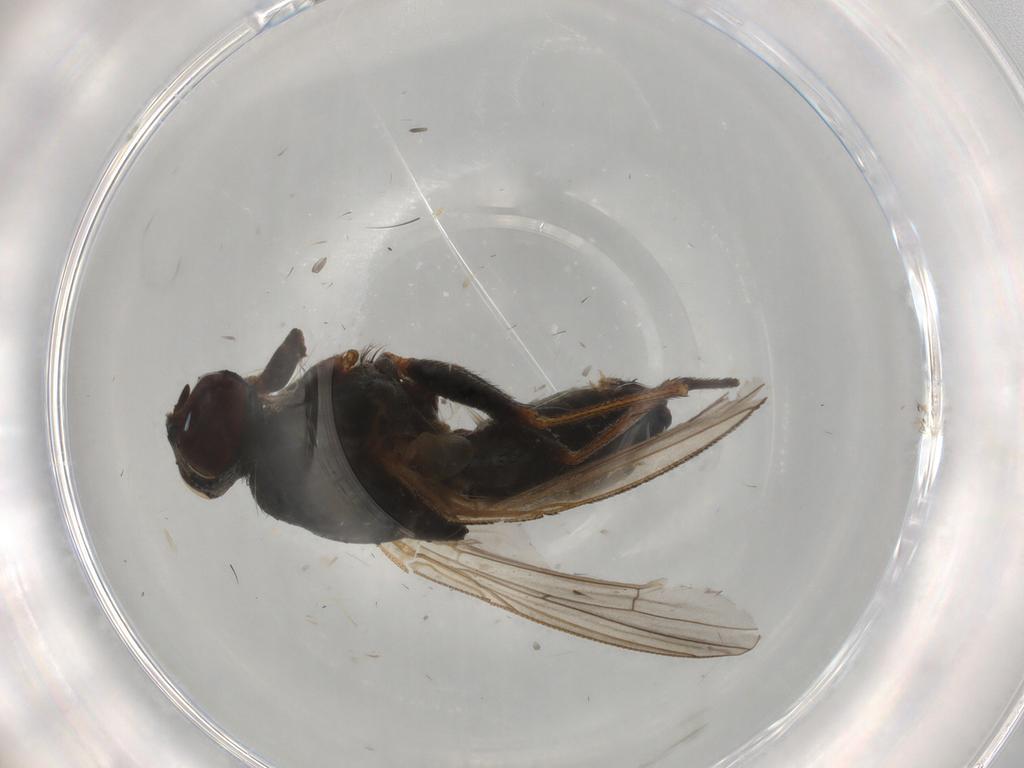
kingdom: Animalia
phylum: Arthropoda
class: Insecta
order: Diptera
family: Muscidae
